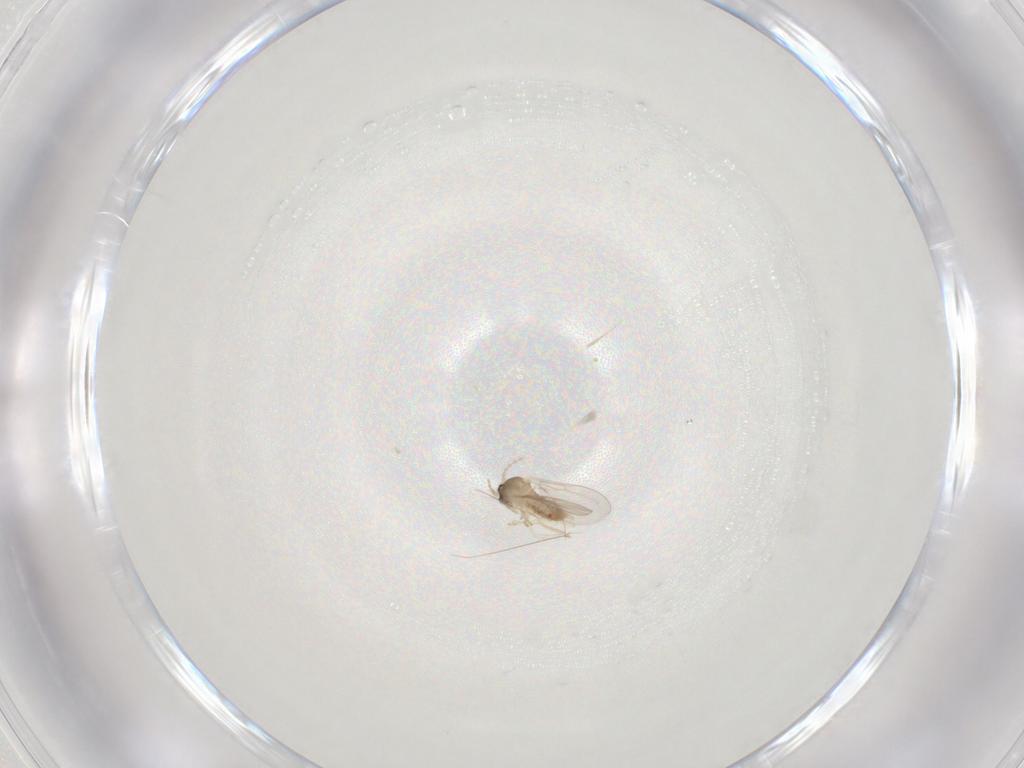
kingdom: Animalia
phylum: Arthropoda
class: Insecta
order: Diptera
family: Cecidomyiidae
